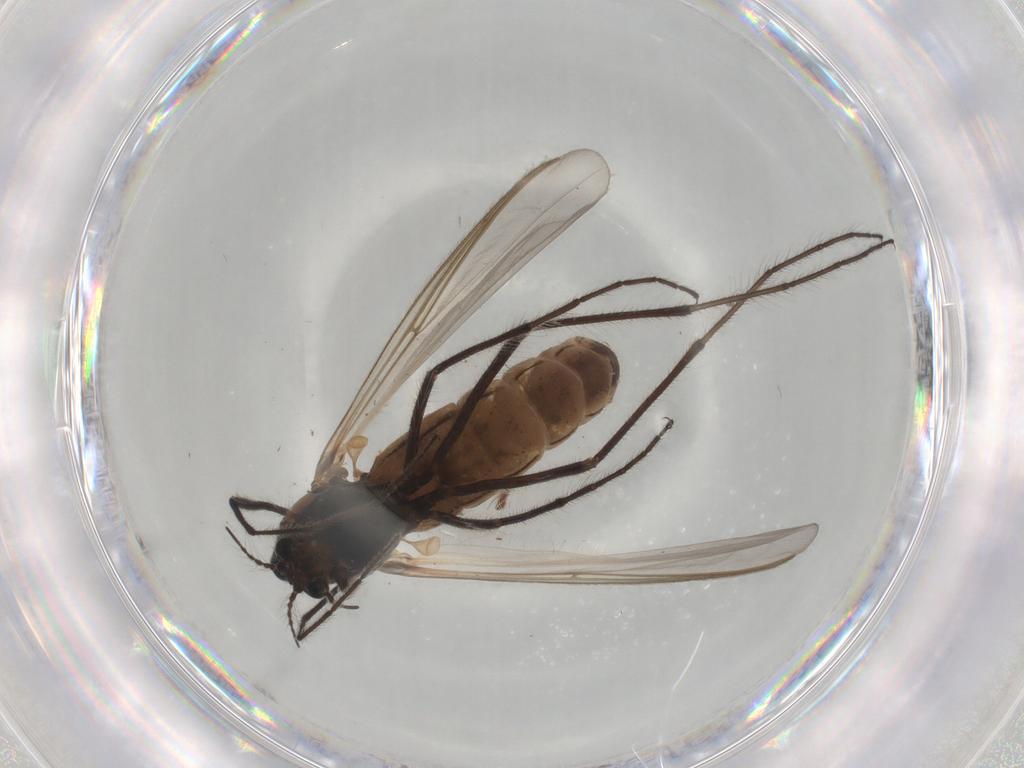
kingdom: Animalia
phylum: Arthropoda
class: Insecta
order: Diptera
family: Chironomidae
